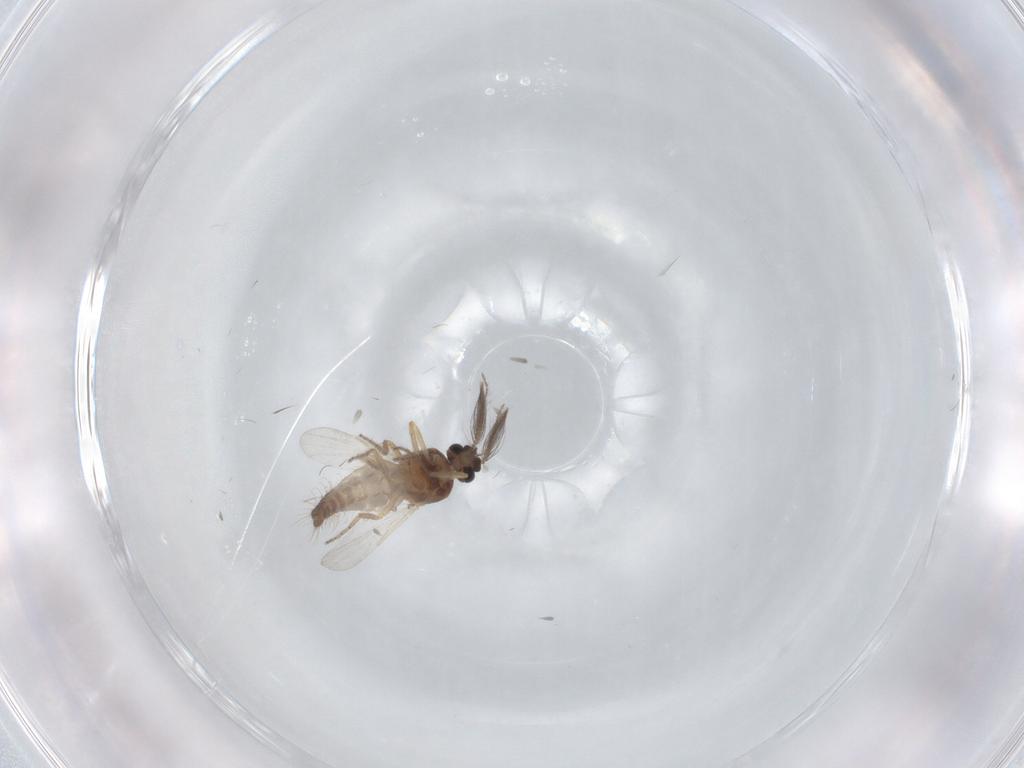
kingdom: Animalia
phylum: Arthropoda
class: Insecta
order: Diptera
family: Ceratopogonidae
